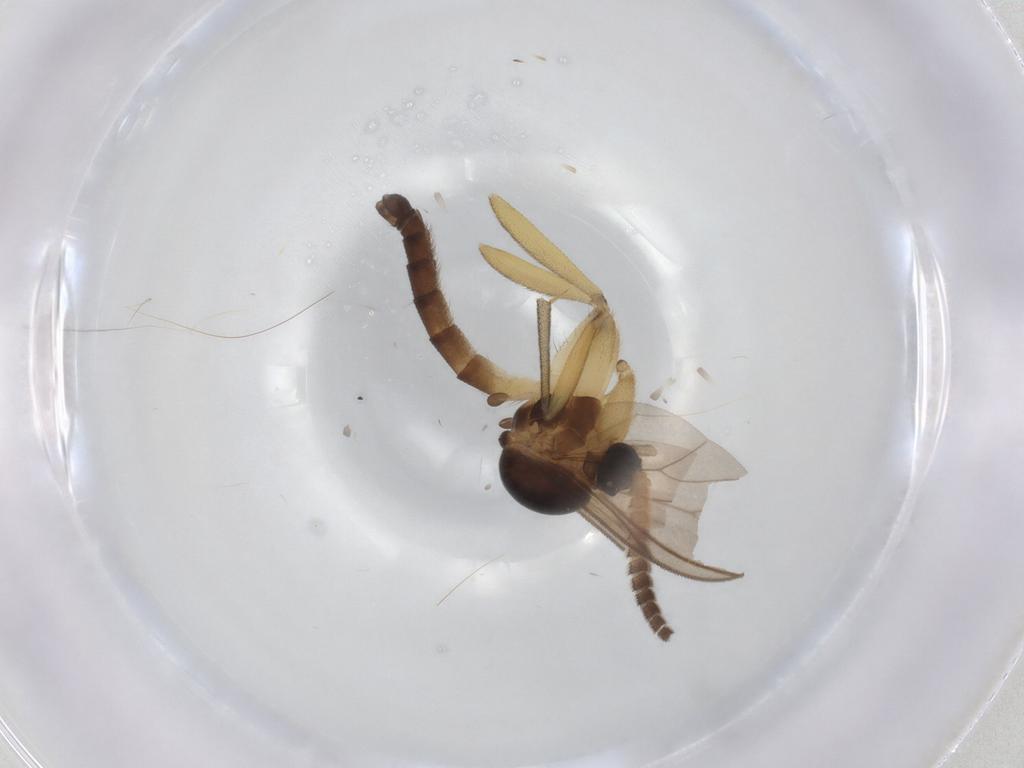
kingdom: Animalia
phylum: Arthropoda
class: Insecta
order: Diptera
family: Mycetophilidae
